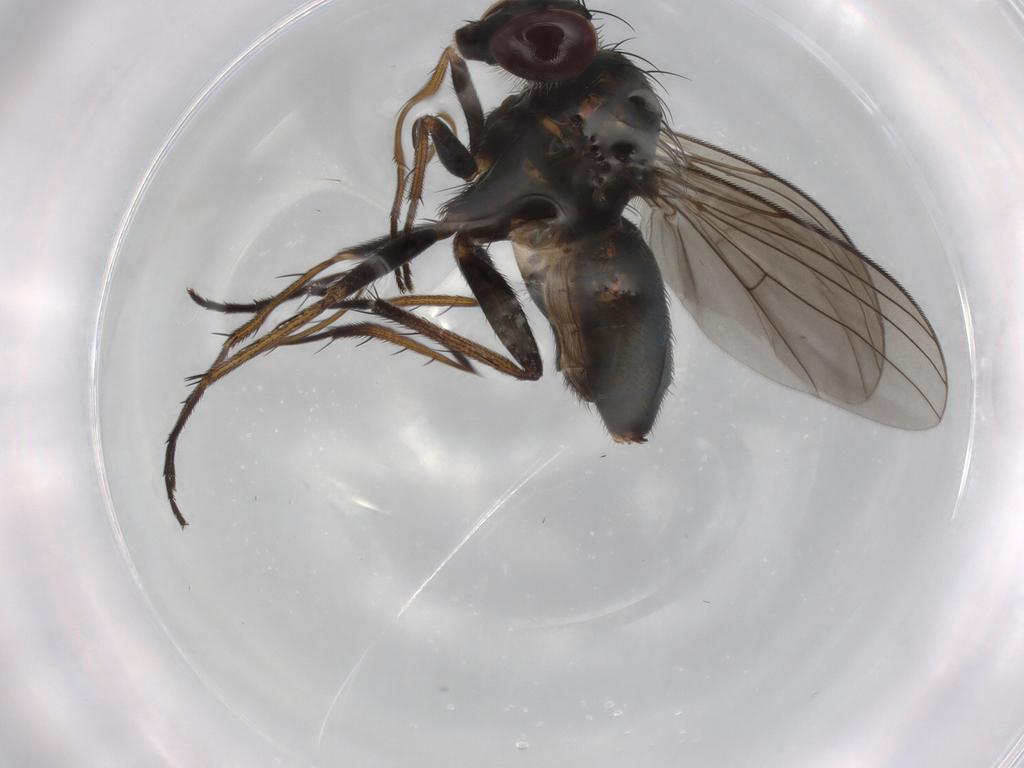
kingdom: Animalia
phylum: Arthropoda
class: Insecta
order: Diptera
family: Dolichopodidae
